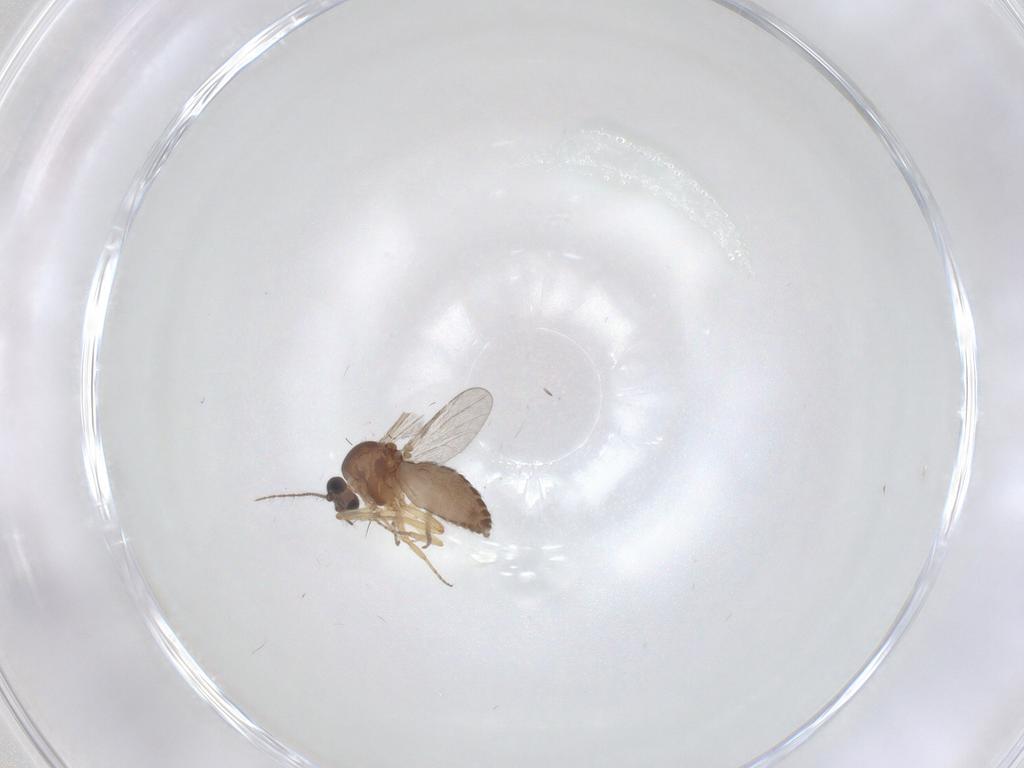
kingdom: Animalia
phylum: Arthropoda
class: Insecta
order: Diptera
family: Ceratopogonidae
